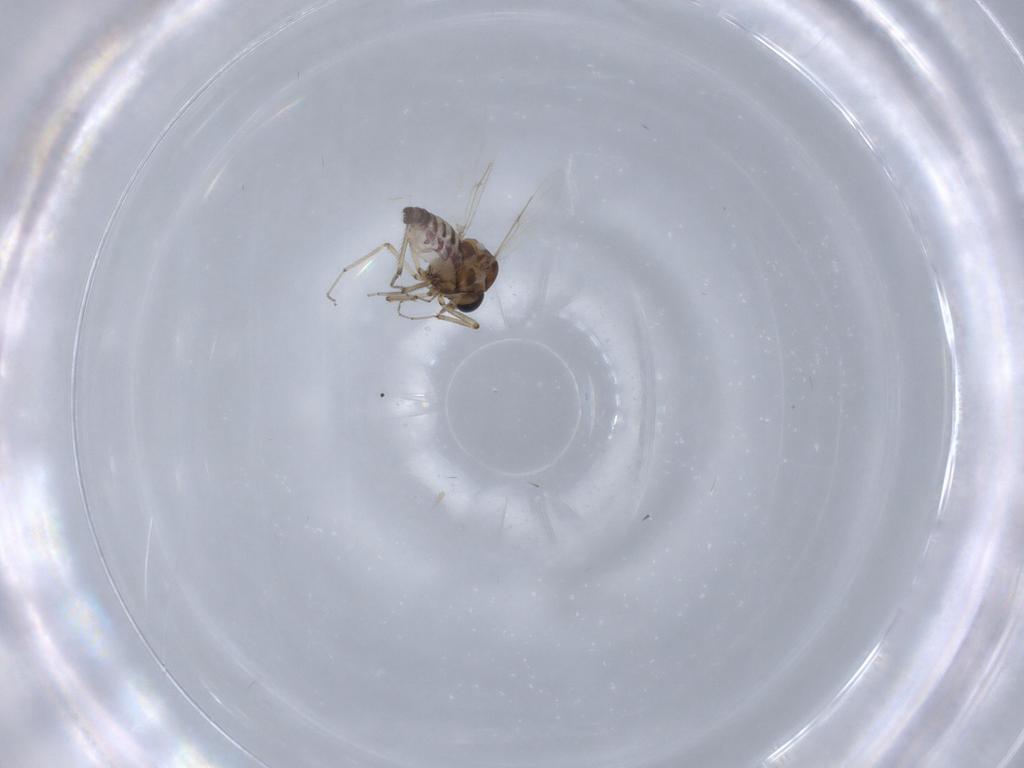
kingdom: Animalia
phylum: Arthropoda
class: Insecta
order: Diptera
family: Ceratopogonidae
